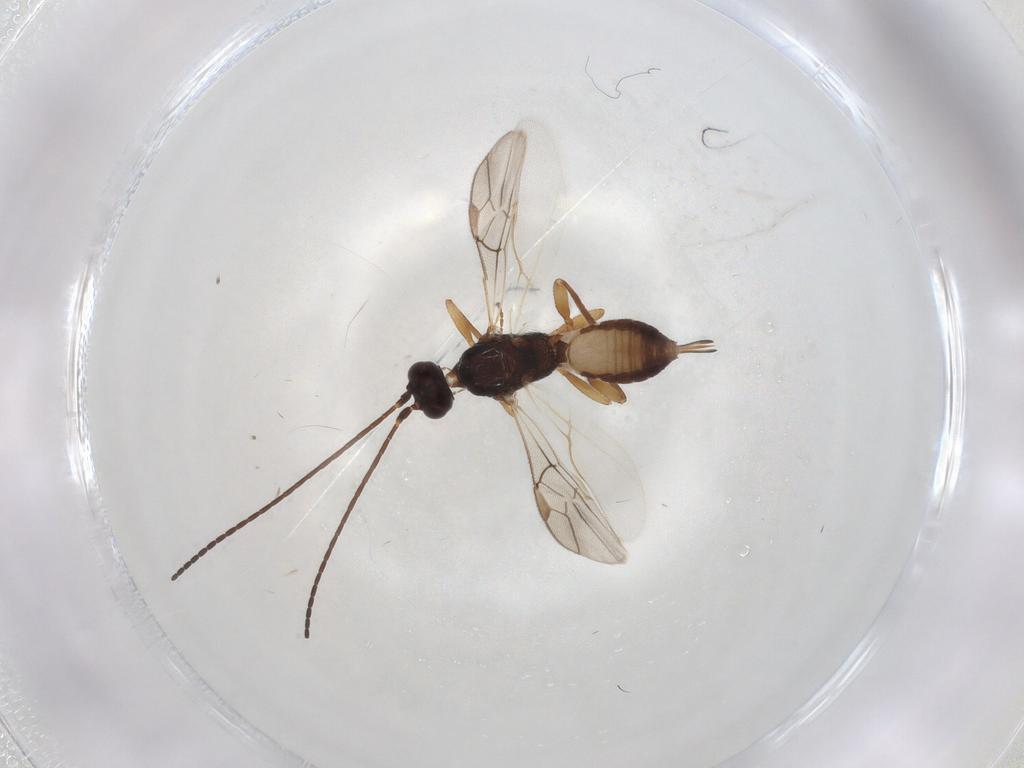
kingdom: Animalia
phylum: Arthropoda
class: Insecta
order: Hymenoptera
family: Braconidae
